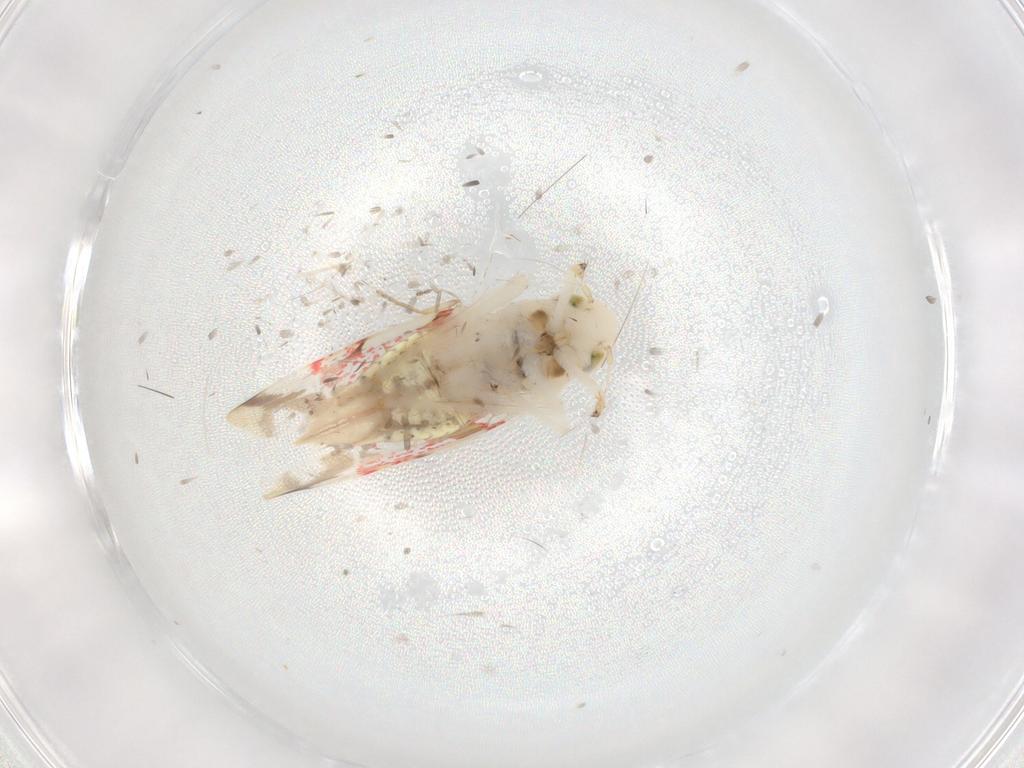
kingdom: Animalia
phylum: Arthropoda
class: Insecta
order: Hemiptera
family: Cicadellidae
